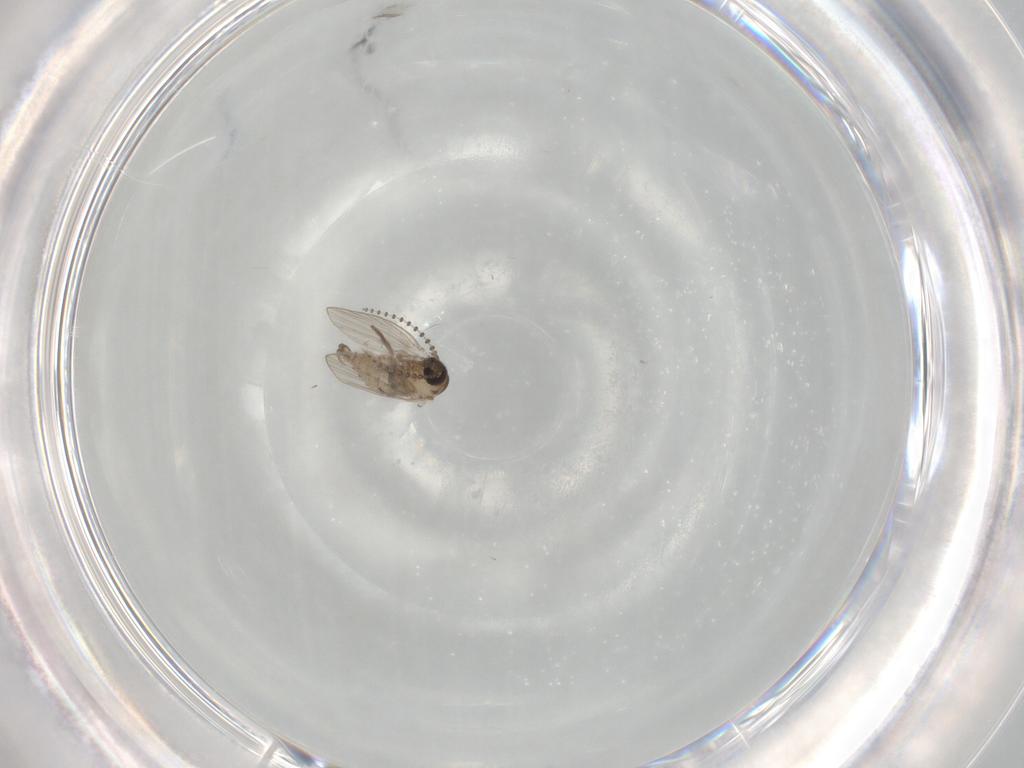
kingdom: Animalia
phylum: Arthropoda
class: Insecta
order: Diptera
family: Psychodidae
